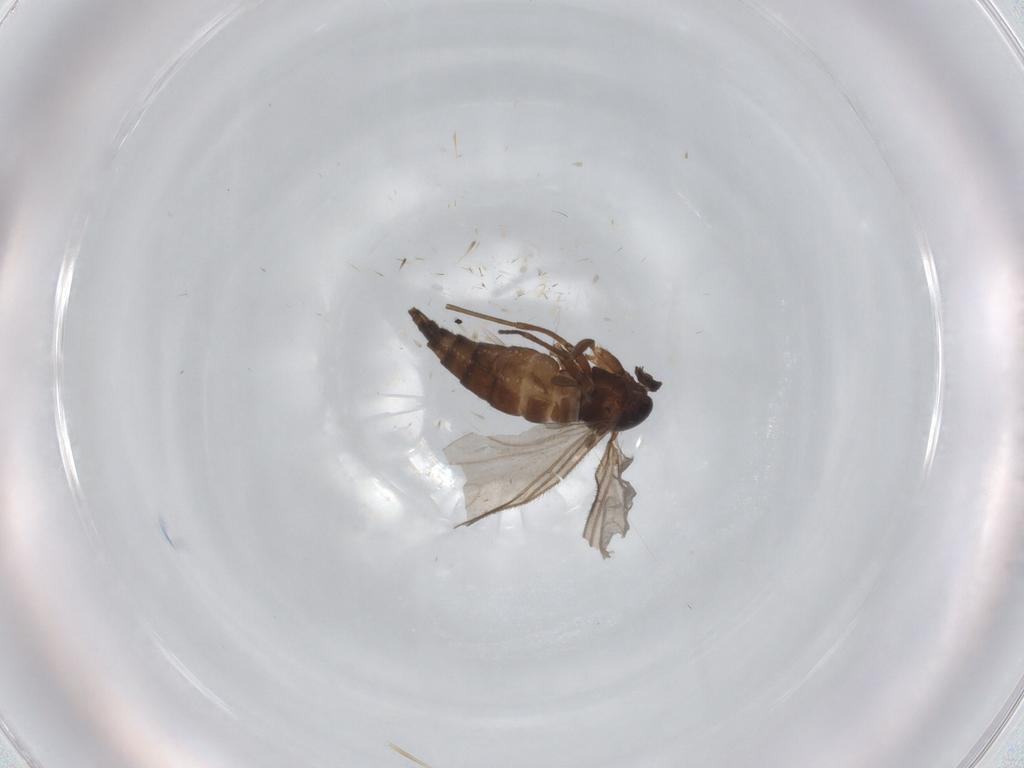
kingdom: Animalia
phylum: Arthropoda
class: Insecta
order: Diptera
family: Sciaridae
